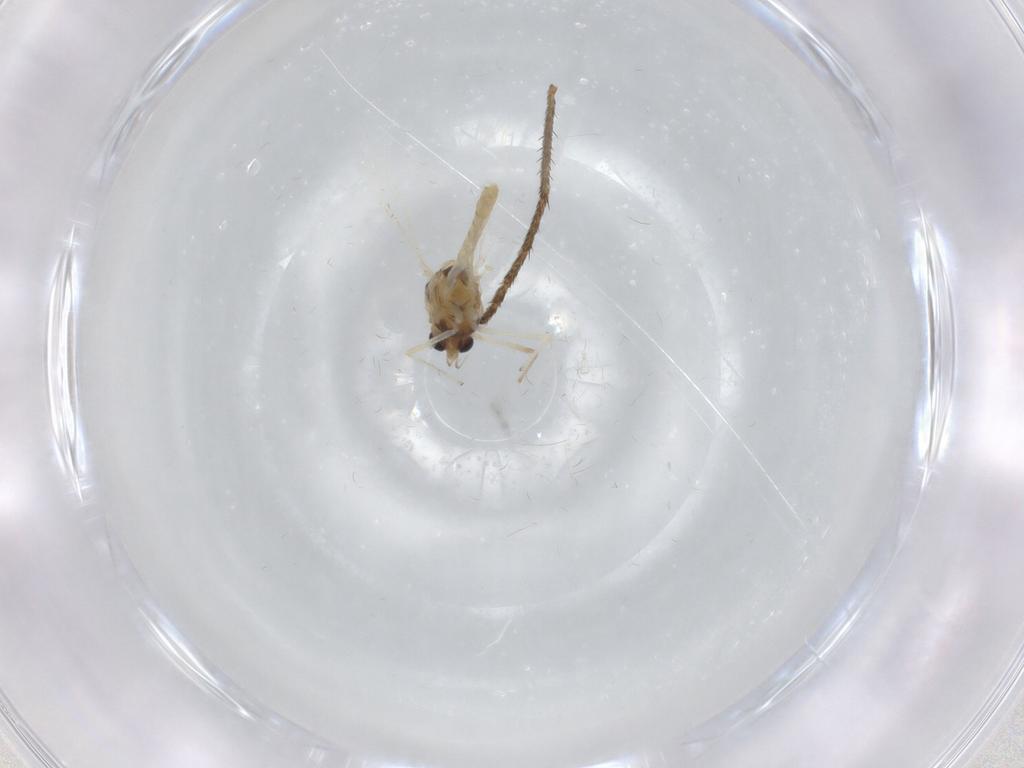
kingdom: Animalia
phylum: Arthropoda
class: Insecta
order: Diptera
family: Chironomidae
